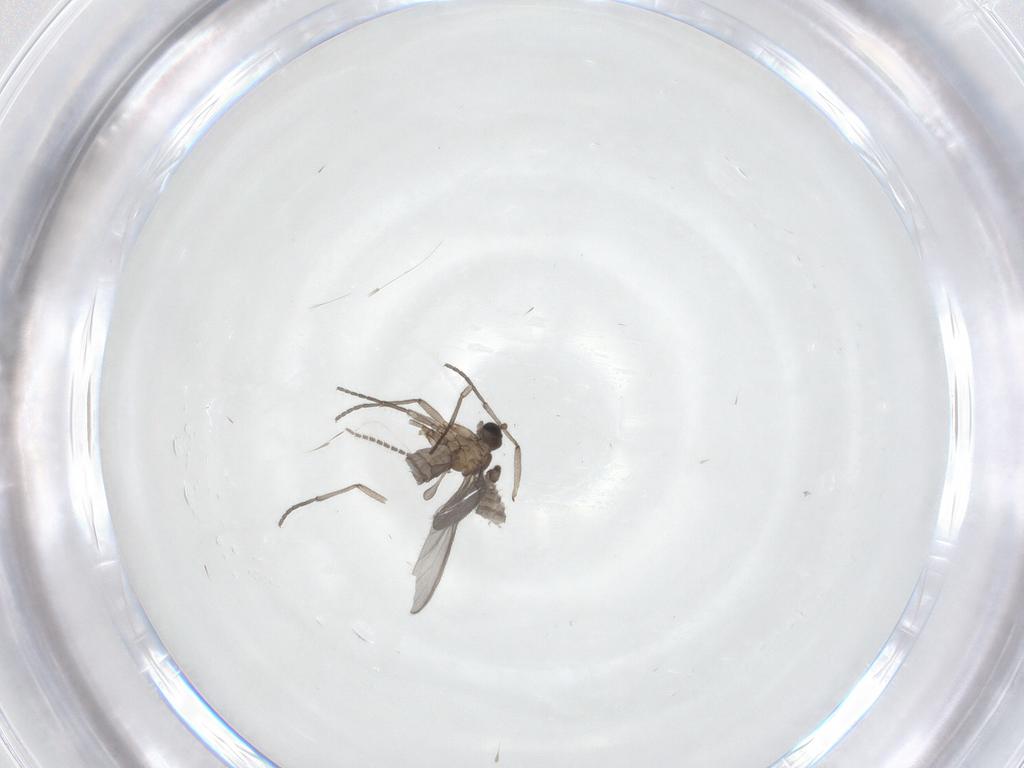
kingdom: Animalia
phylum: Arthropoda
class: Insecta
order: Diptera
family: Sciaridae
